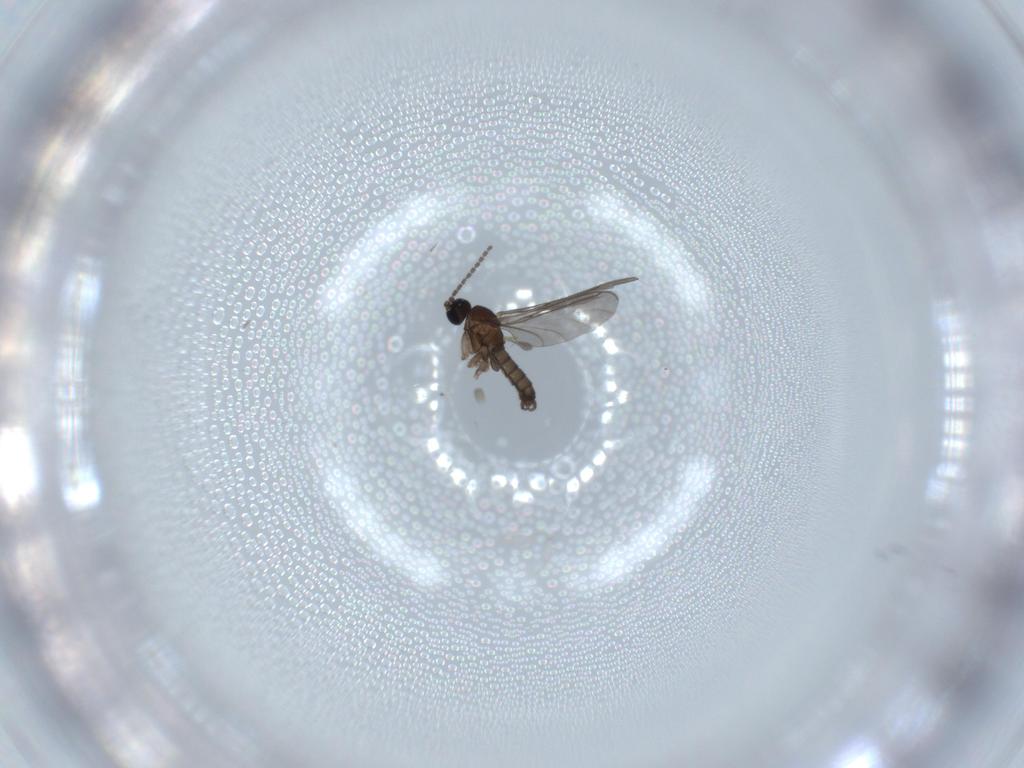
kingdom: Animalia
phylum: Arthropoda
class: Insecta
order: Diptera
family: Sciaridae
